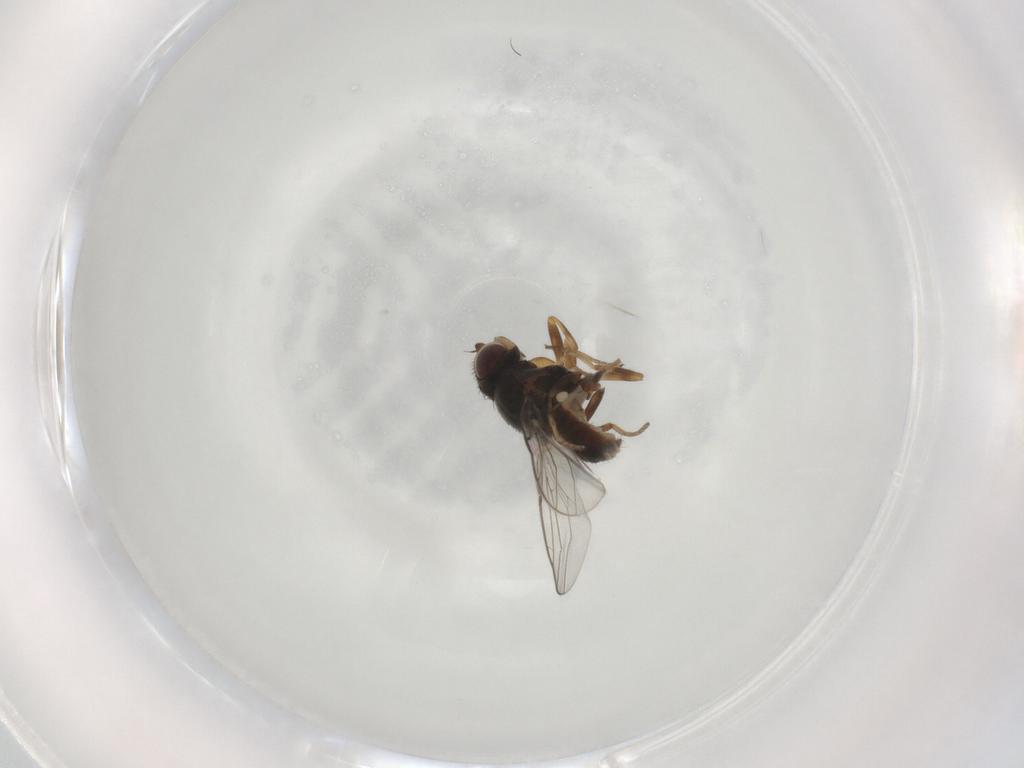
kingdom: Animalia
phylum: Arthropoda
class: Insecta
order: Diptera
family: Chloropidae
